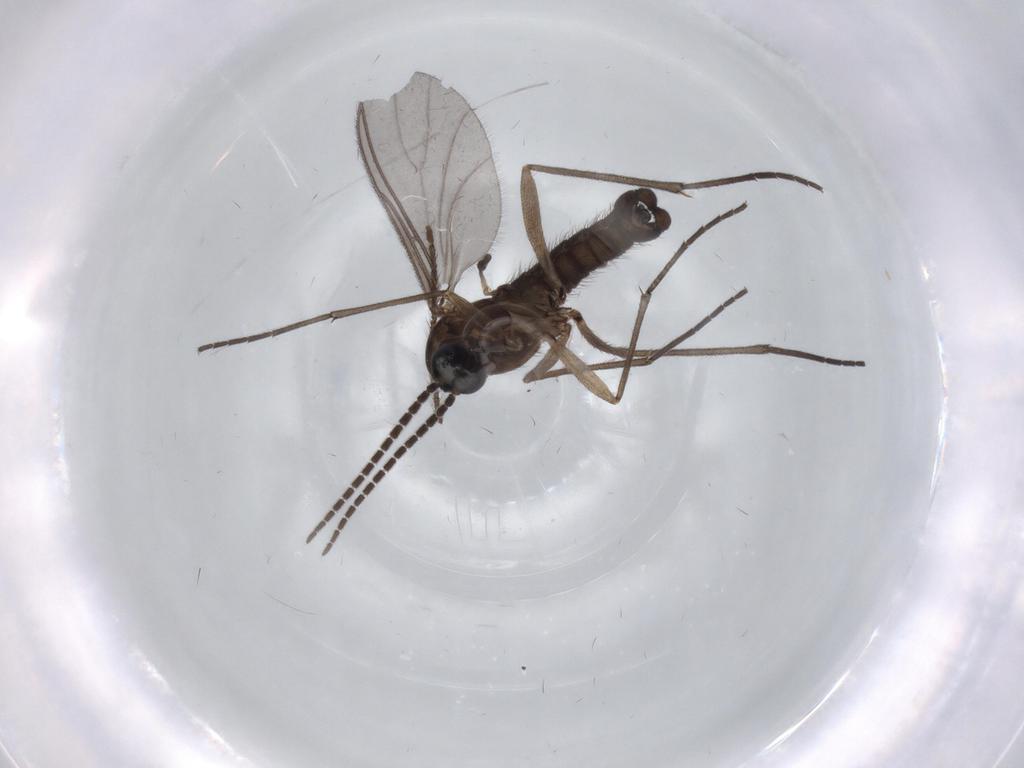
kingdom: Animalia
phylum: Arthropoda
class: Insecta
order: Diptera
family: Sciaridae
